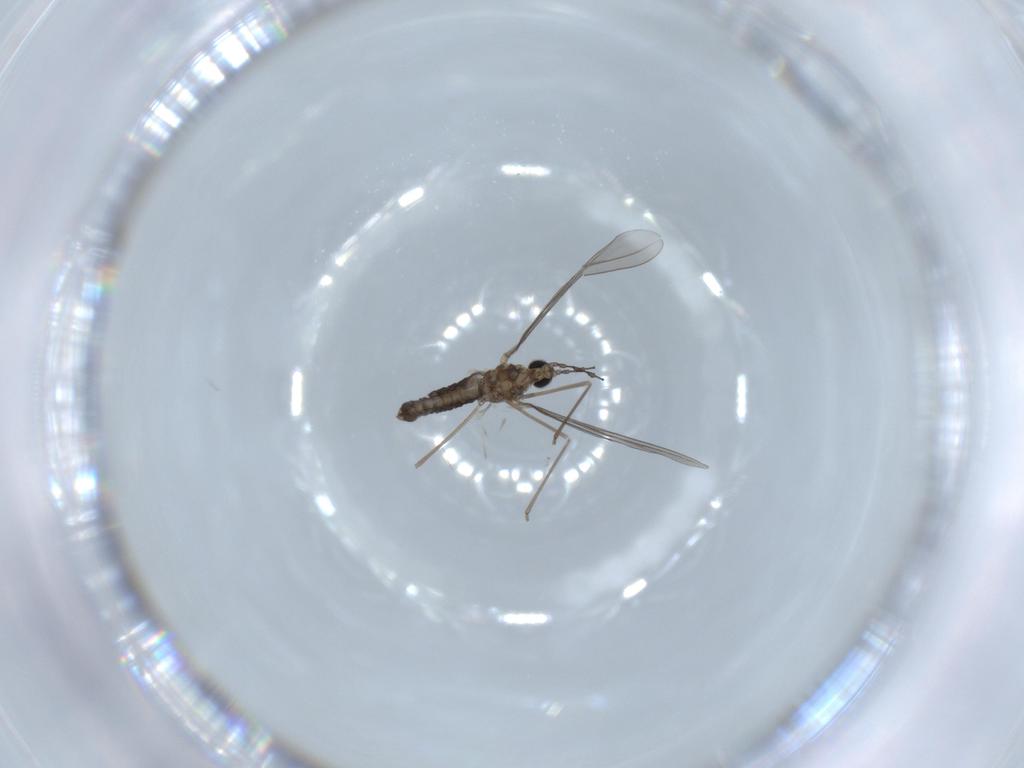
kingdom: Animalia
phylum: Arthropoda
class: Insecta
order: Diptera
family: Cecidomyiidae
